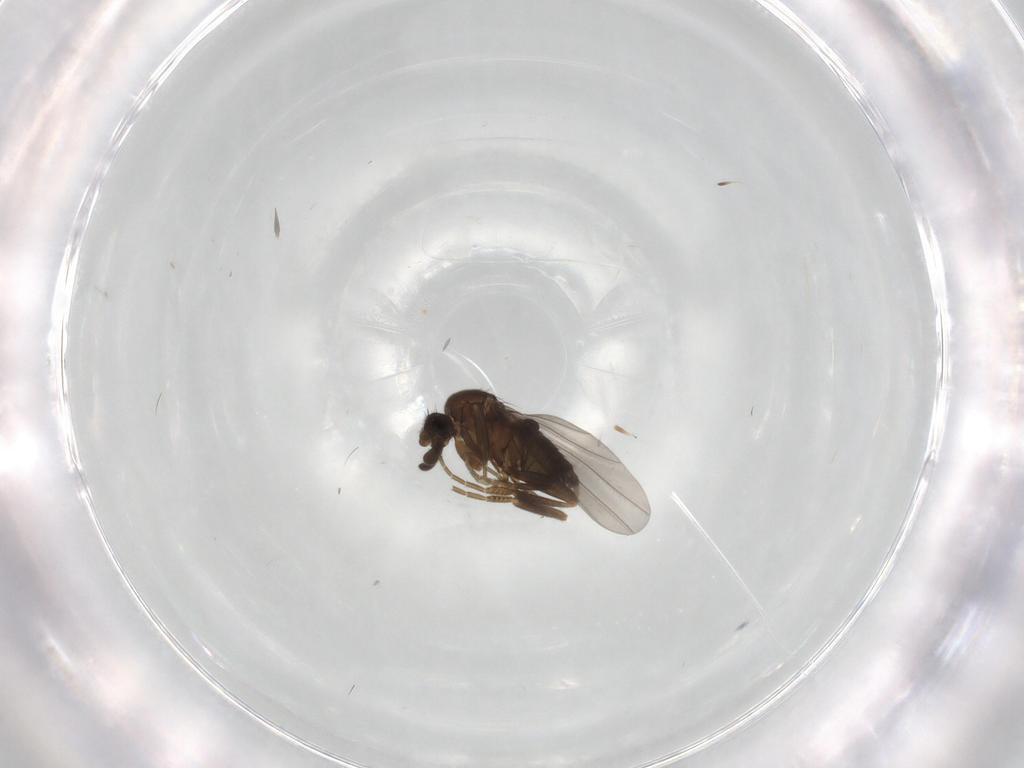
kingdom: Animalia
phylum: Arthropoda
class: Insecta
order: Diptera
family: Phoridae
